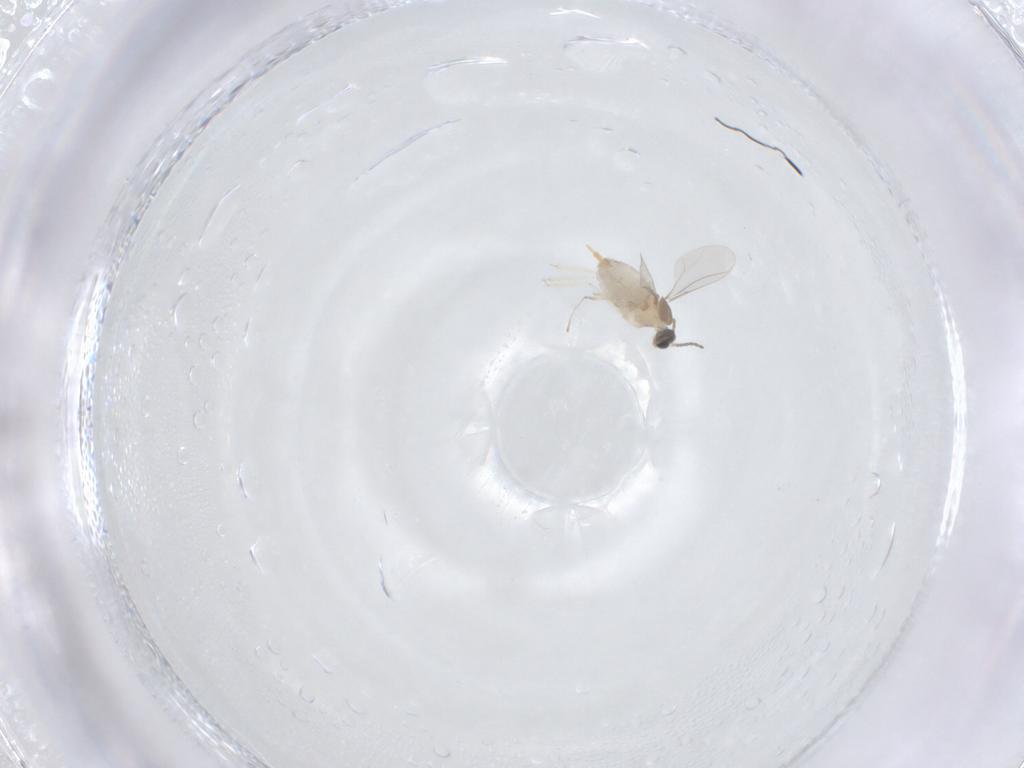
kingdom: Animalia
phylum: Arthropoda
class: Insecta
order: Diptera
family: Cecidomyiidae
